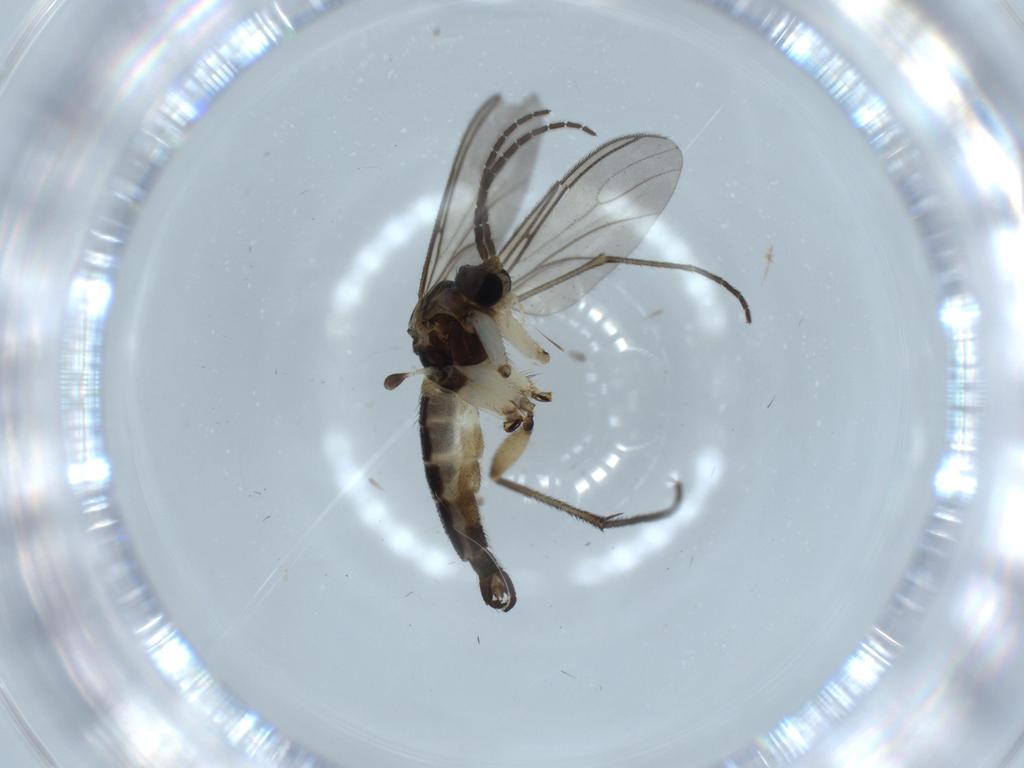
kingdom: Animalia
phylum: Arthropoda
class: Insecta
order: Diptera
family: Sciaridae
